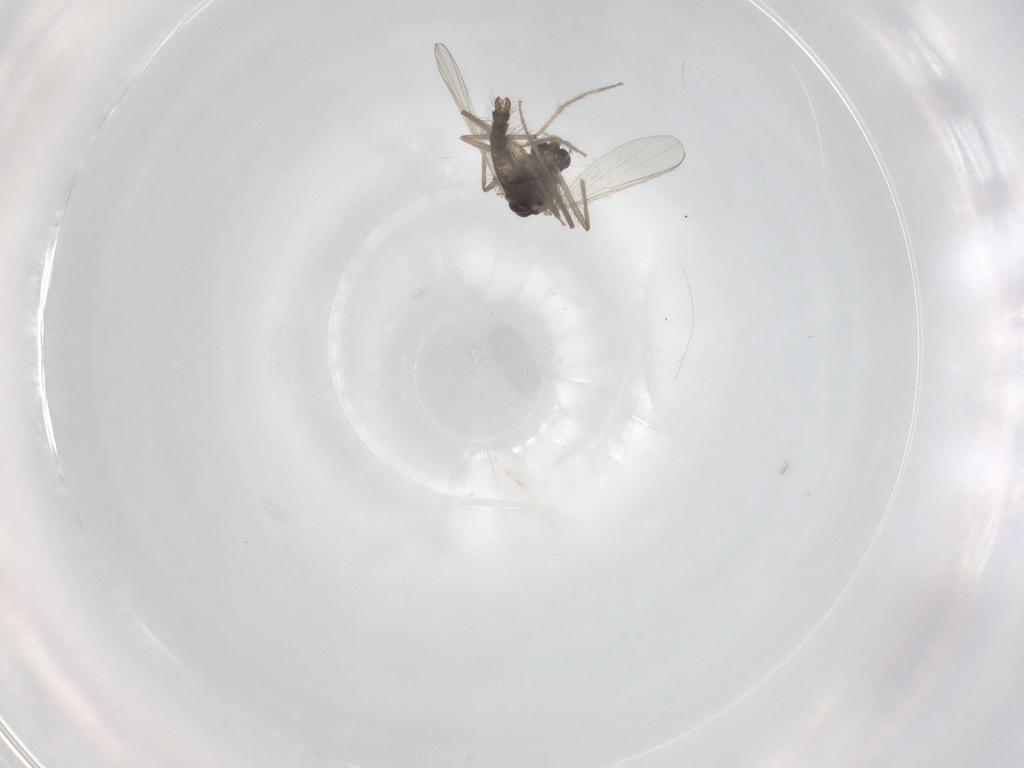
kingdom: Animalia
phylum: Arthropoda
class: Insecta
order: Diptera
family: Chironomidae
